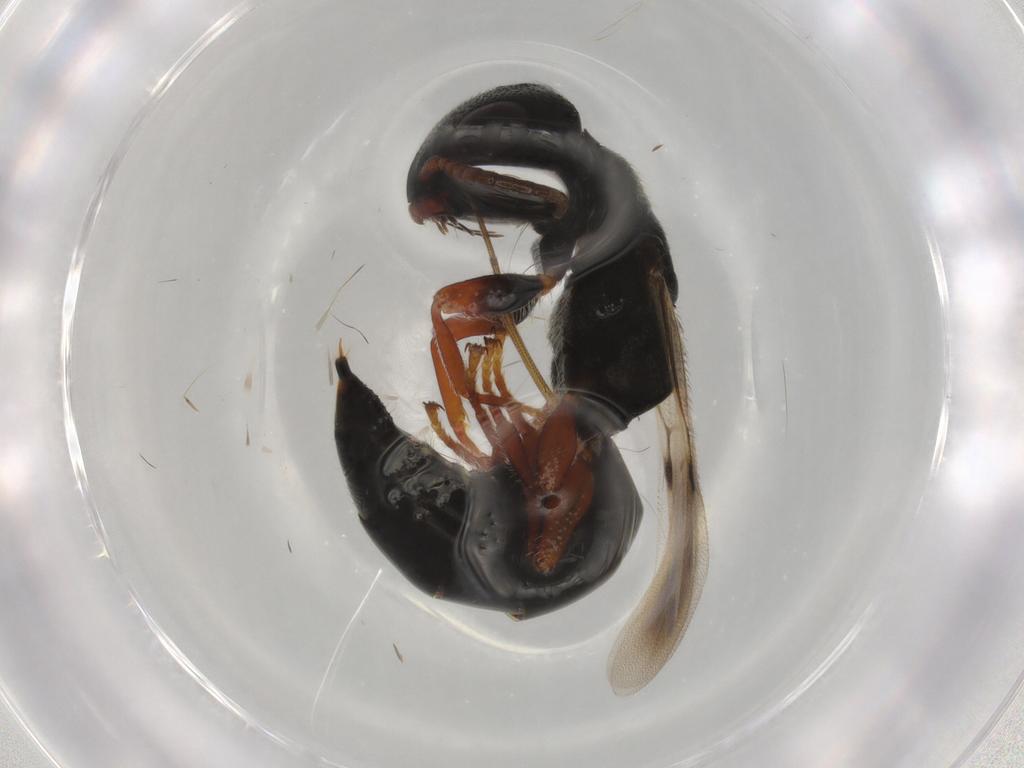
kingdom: Animalia
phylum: Arthropoda
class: Insecta
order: Hymenoptera
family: Bethylidae
